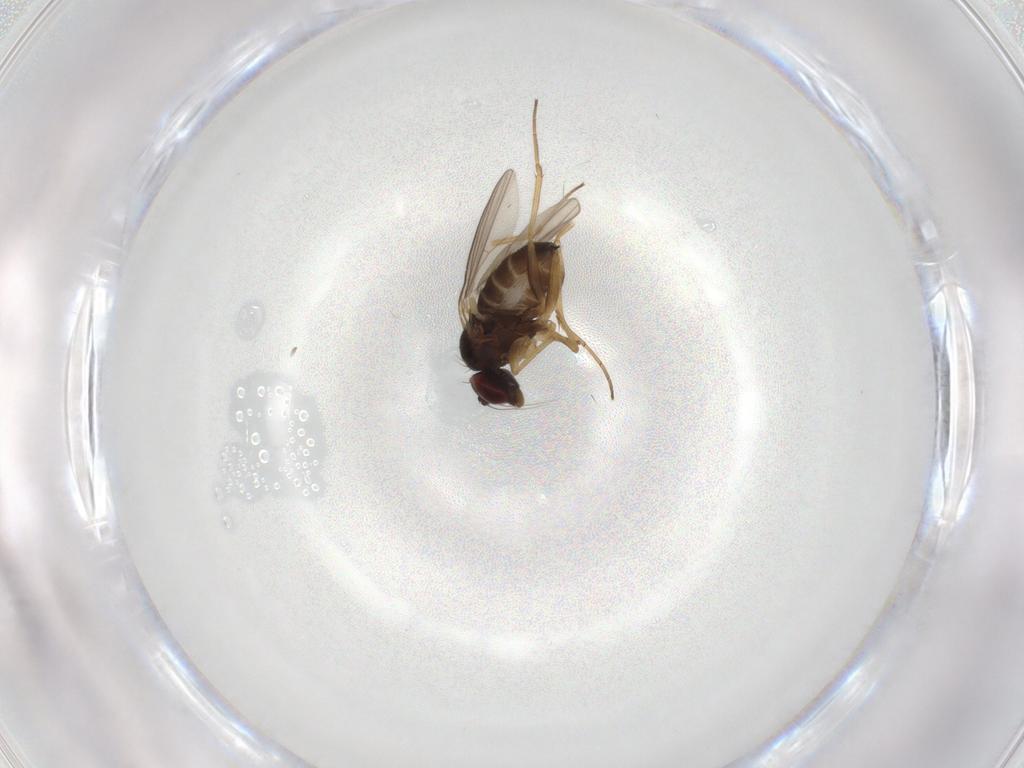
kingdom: Animalia
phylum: Arthropoda
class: Insecta
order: Diptera
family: Dolichopodidae
